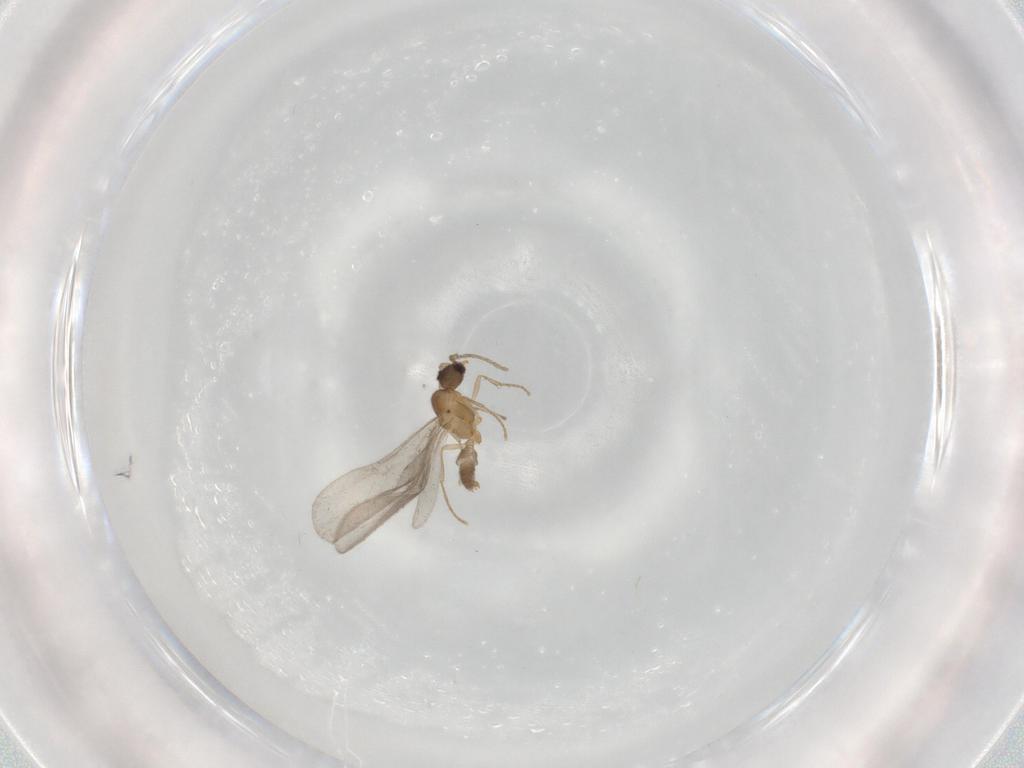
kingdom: Animalia
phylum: Arthropoda
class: Insecta
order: Hymenoptera
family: Formicidae
